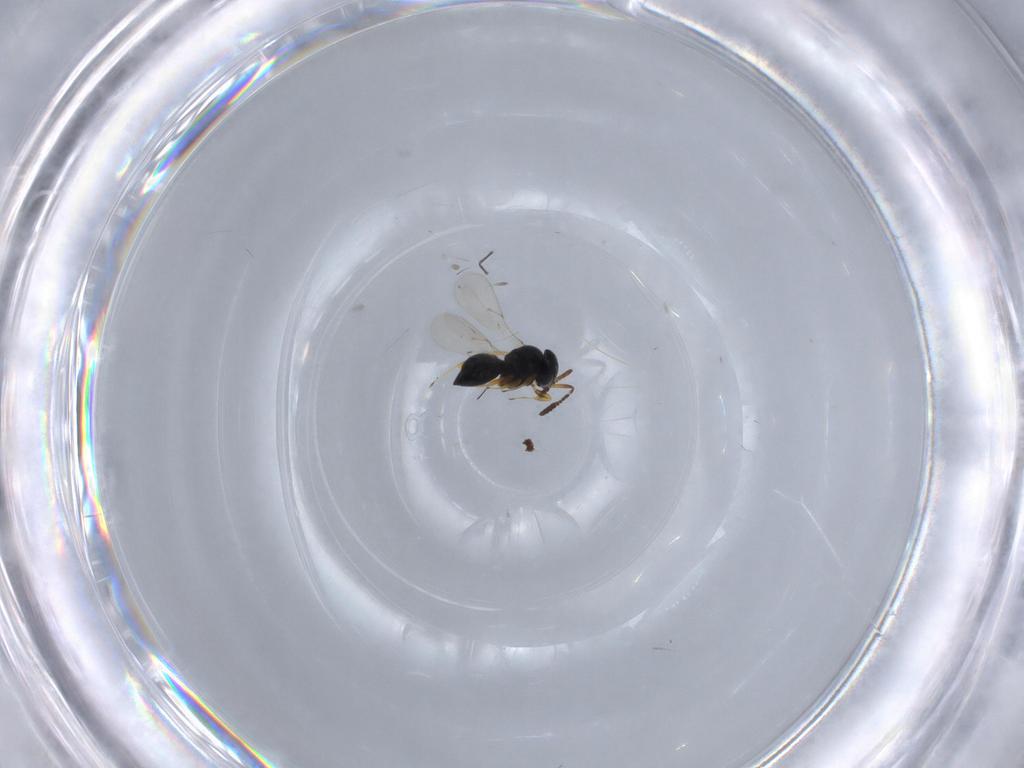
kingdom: Animalia
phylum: Arthropoda
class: Insecta
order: Hymenoptera
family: Scelionidae
